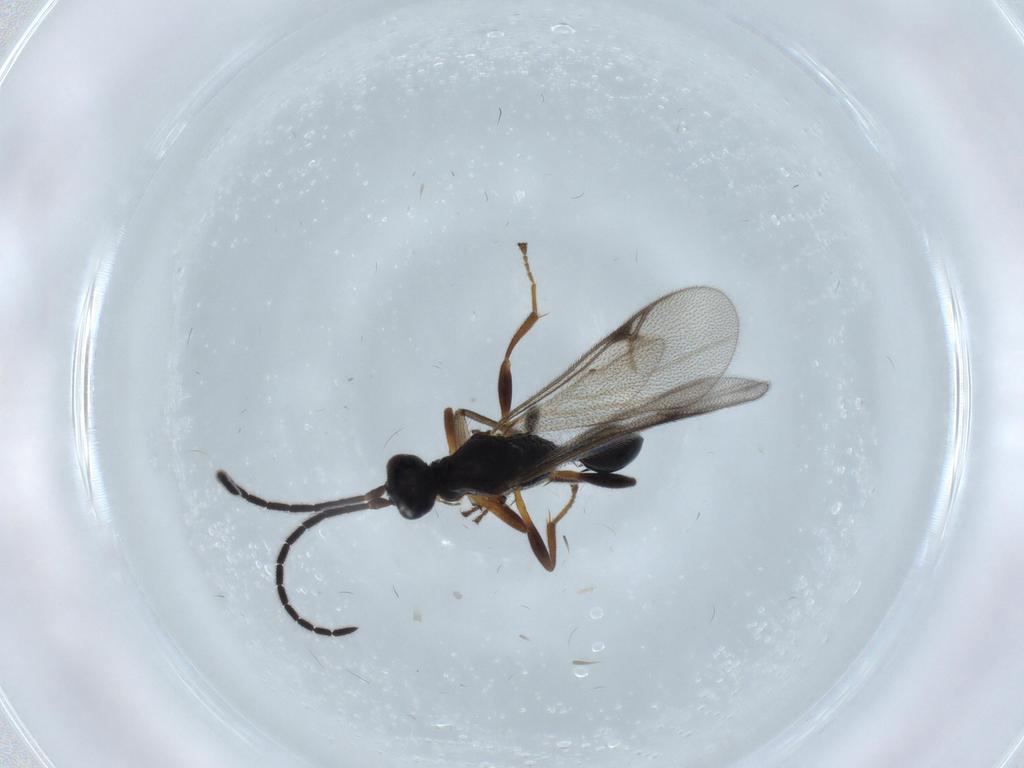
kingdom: Animalia
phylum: Arthropoda
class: Insecta
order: Hymenoptera
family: Proctotrupidae
